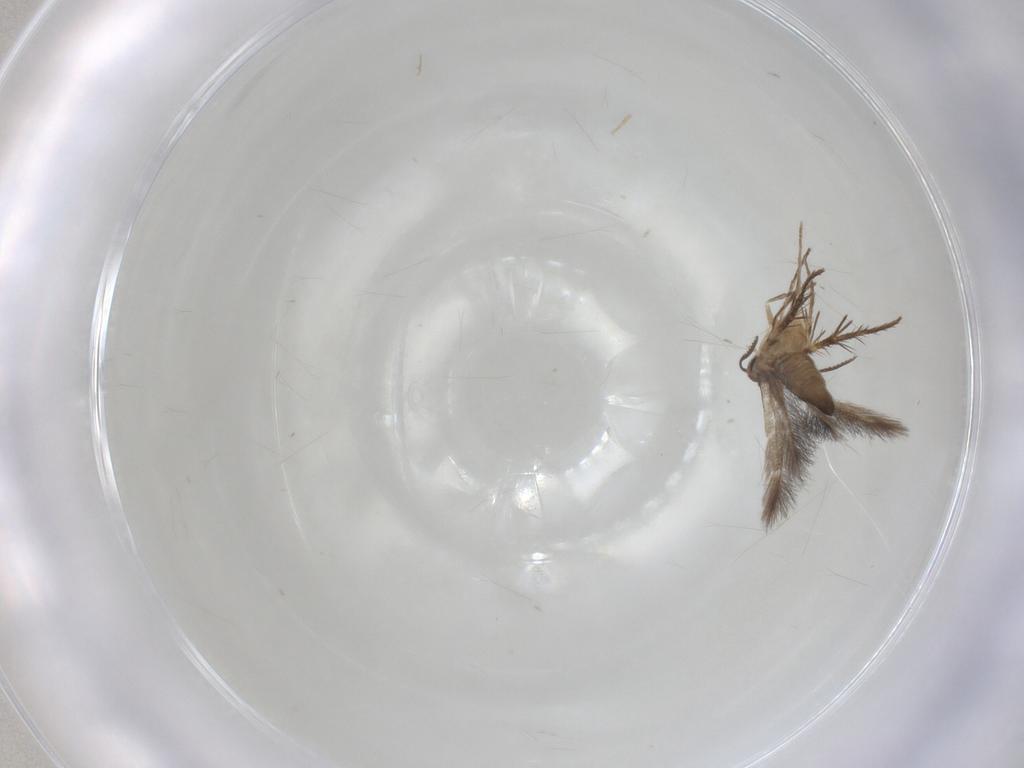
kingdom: Animalia
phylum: Arthropoda
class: Insecta
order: Lepidoptera
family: Pyralidae
